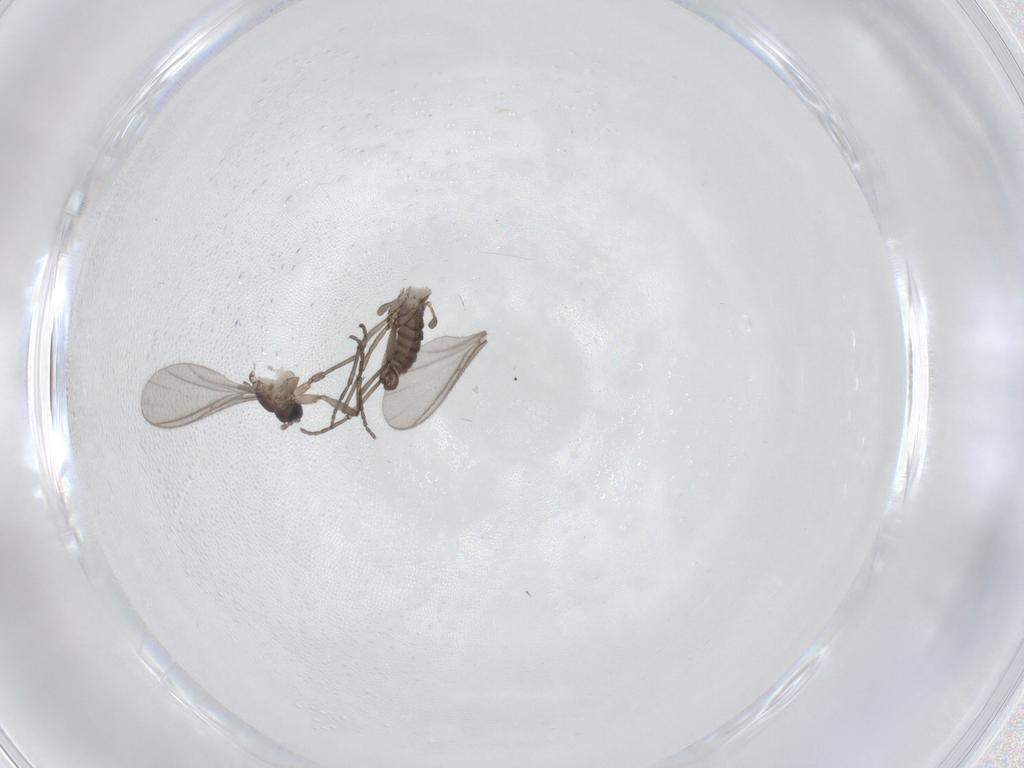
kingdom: Animalia
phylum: Arthropoda
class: Insecta
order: Diptera
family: Sciaridae
